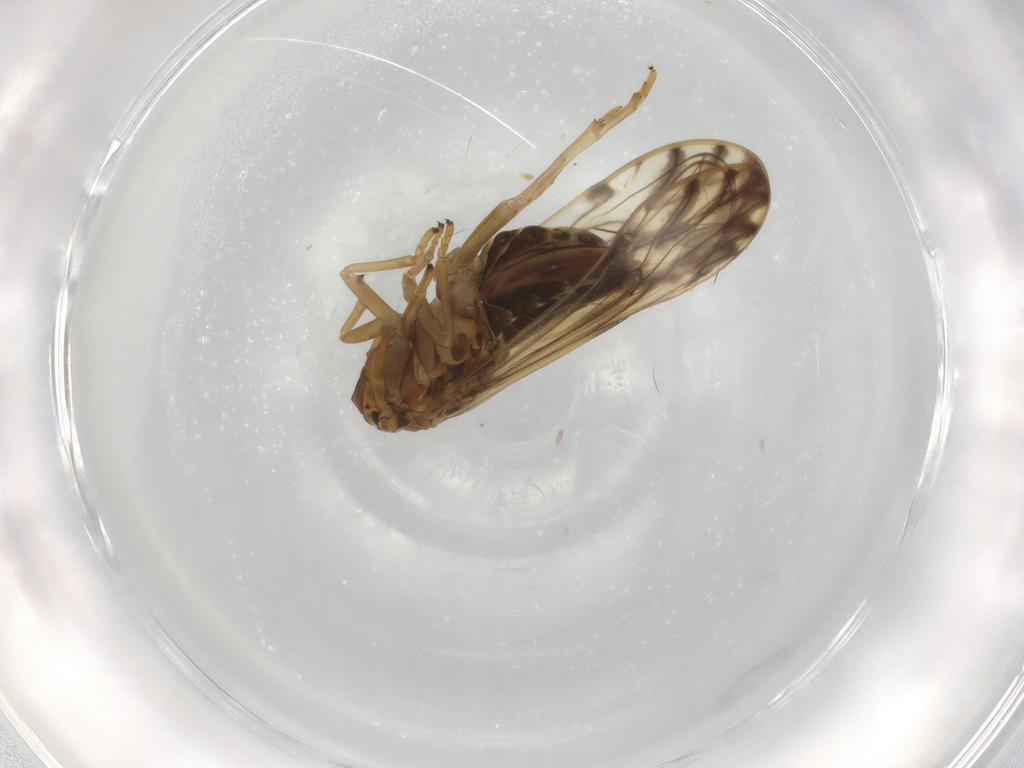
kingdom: Animalia
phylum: Arthropoda
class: Insecta
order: Hemiptera
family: Delphacidae
